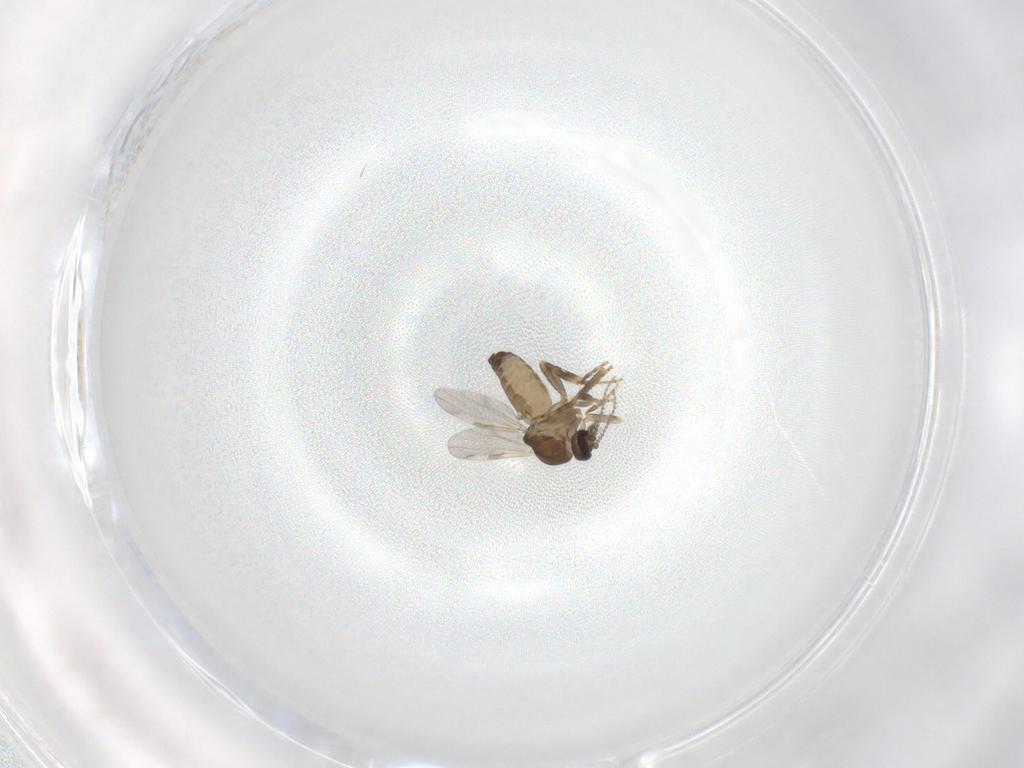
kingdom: Animalia
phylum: Arthropoda
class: Insecta
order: Diptera
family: Ceratopogonidae
